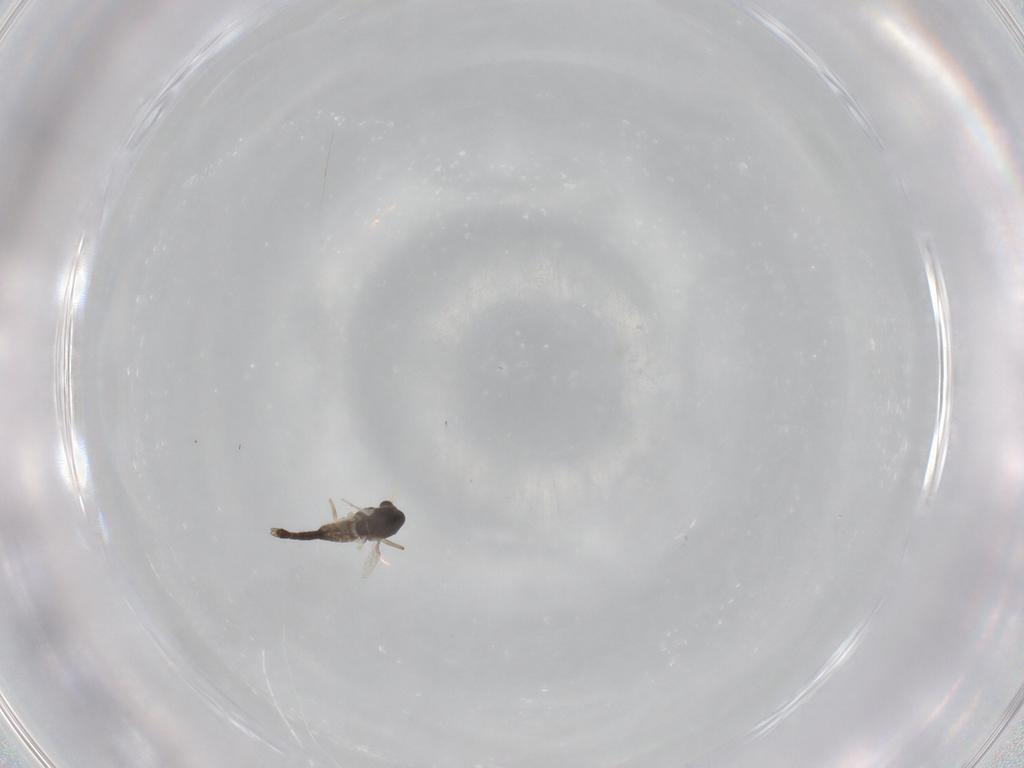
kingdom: Animalia
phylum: Arthropoda
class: Insecta
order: Diptera
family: Chironomidae
